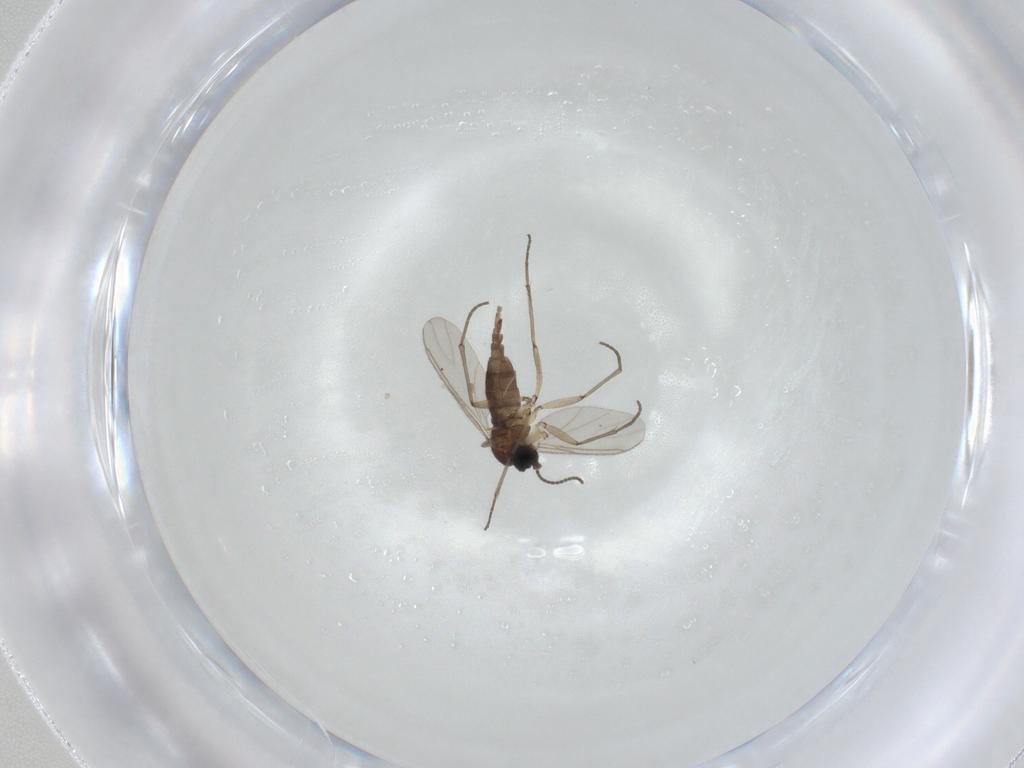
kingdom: Animalia
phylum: Arthropoda
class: Insecta
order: Diptera
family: Sciaridae
